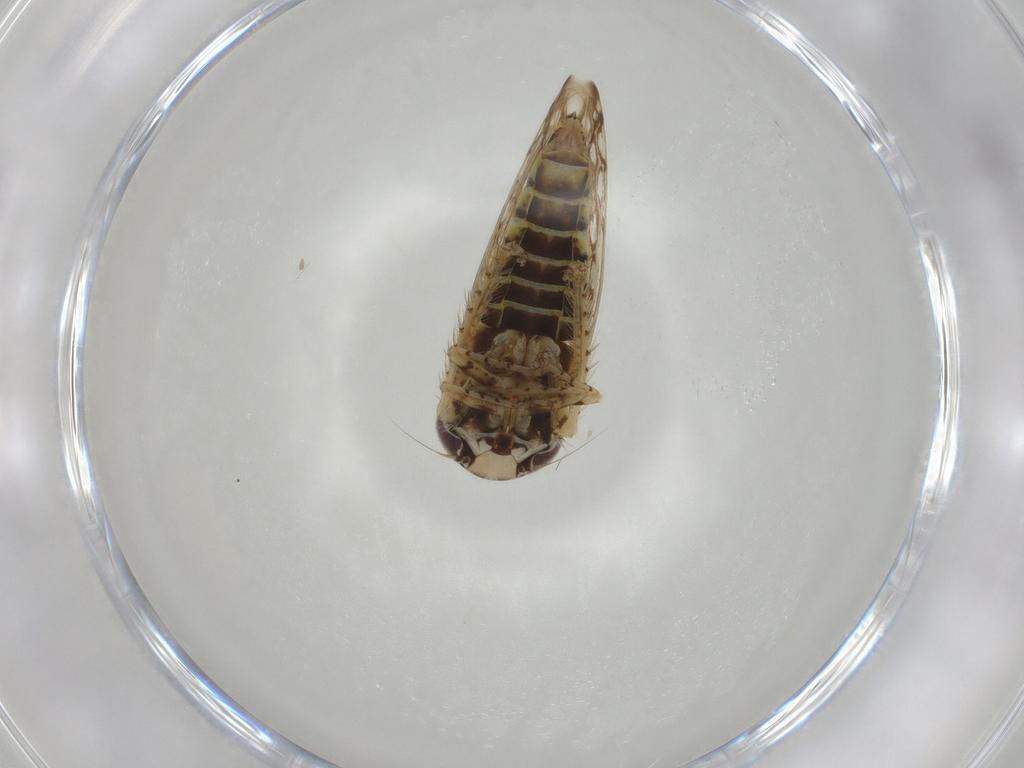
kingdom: Animalia
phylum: Arthropoda
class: Insecta
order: Hemiptera
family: Cicadellidae
